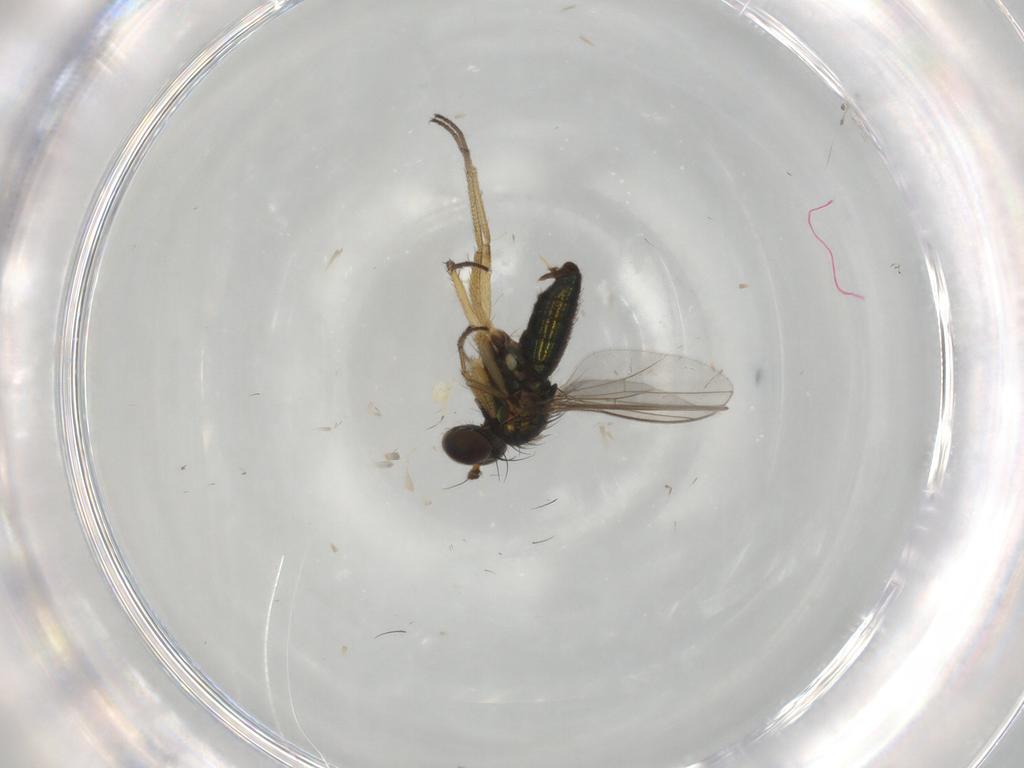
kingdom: Animalia
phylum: Arthropoda
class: Insecta
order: Diptera
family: Dolichopodidae
